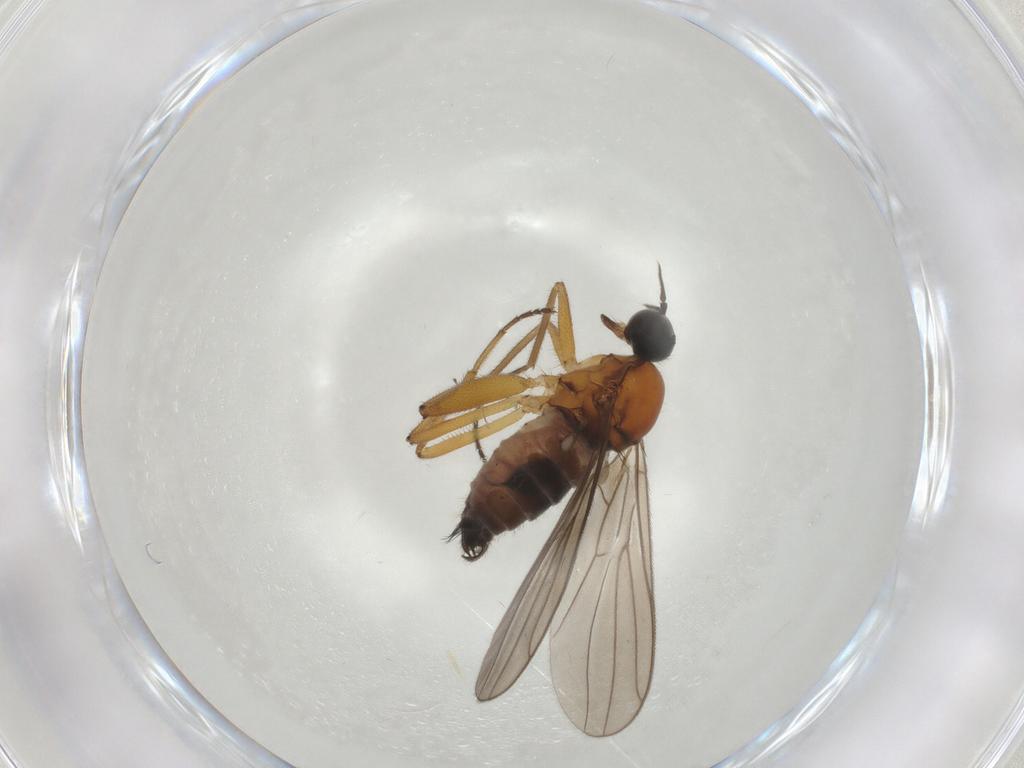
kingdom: Animalia
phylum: Arthropoda
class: Insecta
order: Diptera
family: Hybotidae
